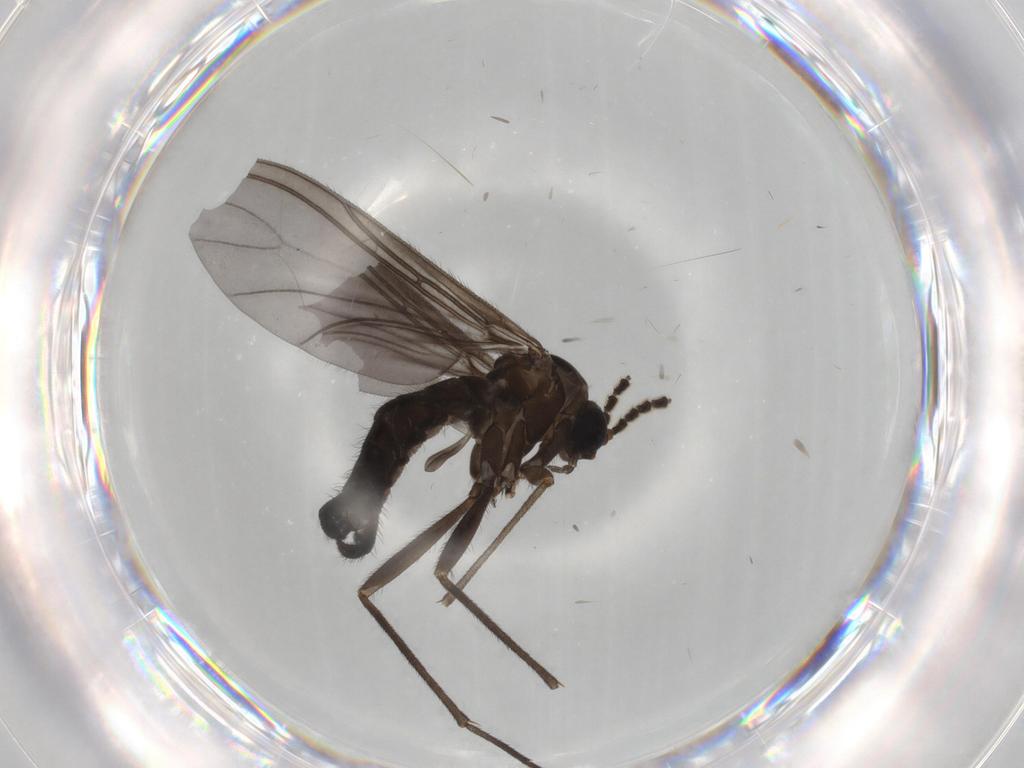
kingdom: Animalia
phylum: Arthropoda
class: Insecta
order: Diptera
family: Sciaridae
